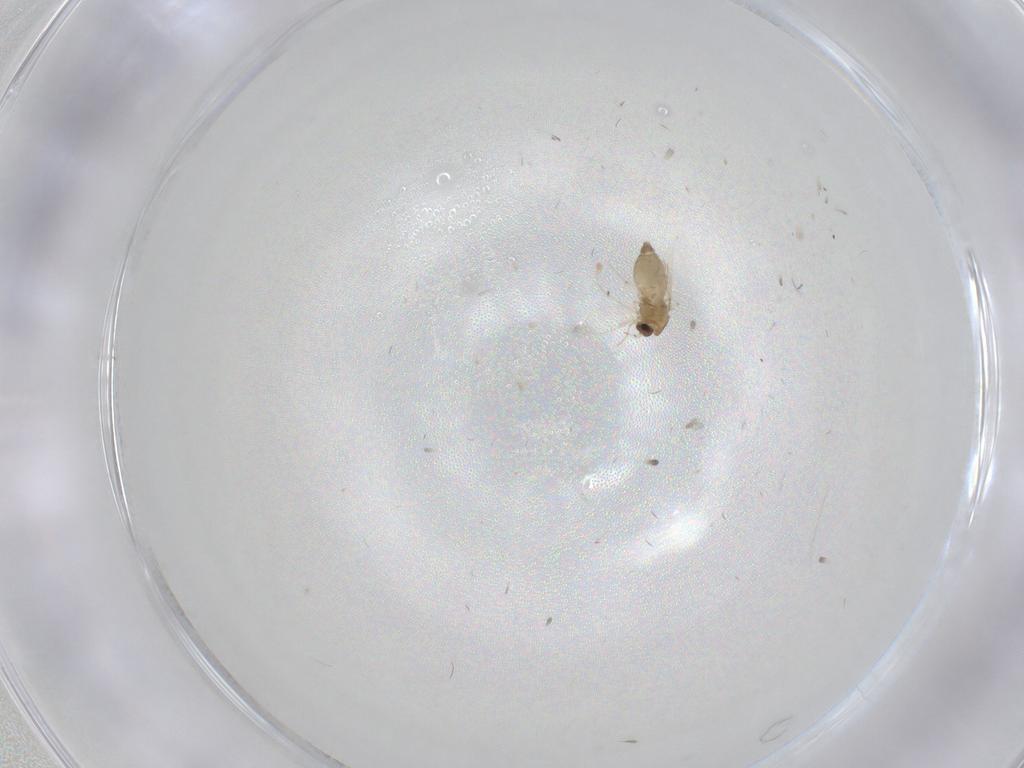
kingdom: Animalia
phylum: Arthropoda
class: Insecta
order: Diptera
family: Chironomidae
